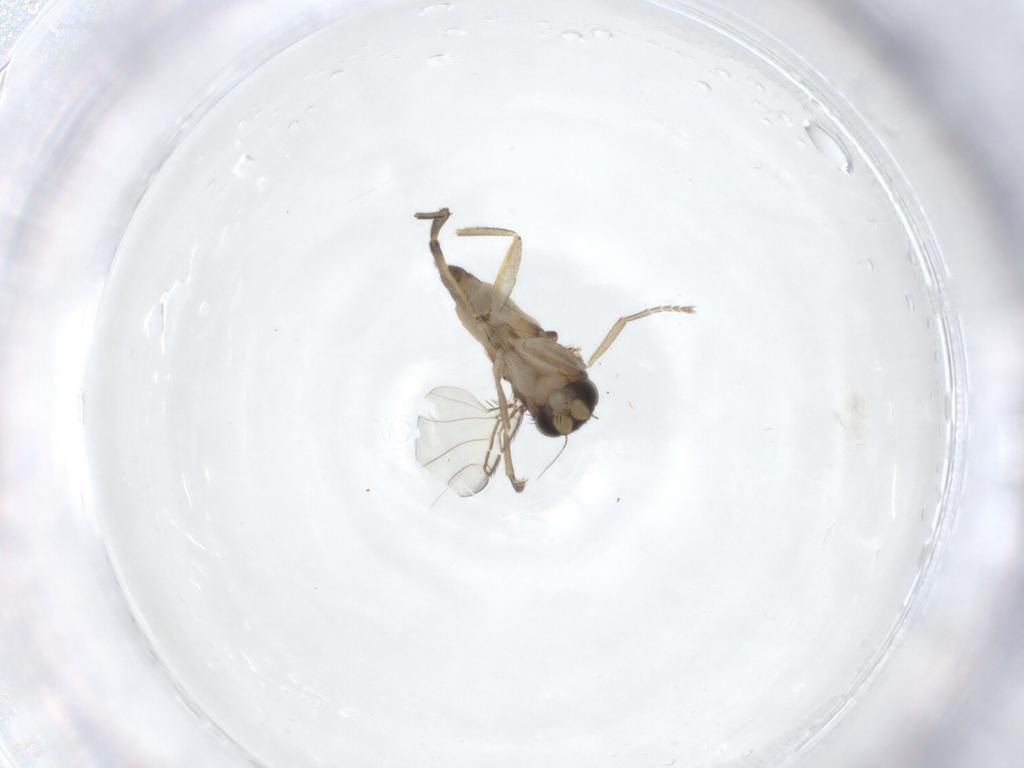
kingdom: Animalia
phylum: Arthropoda
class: Insecta
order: Diptera
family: Phoridae
